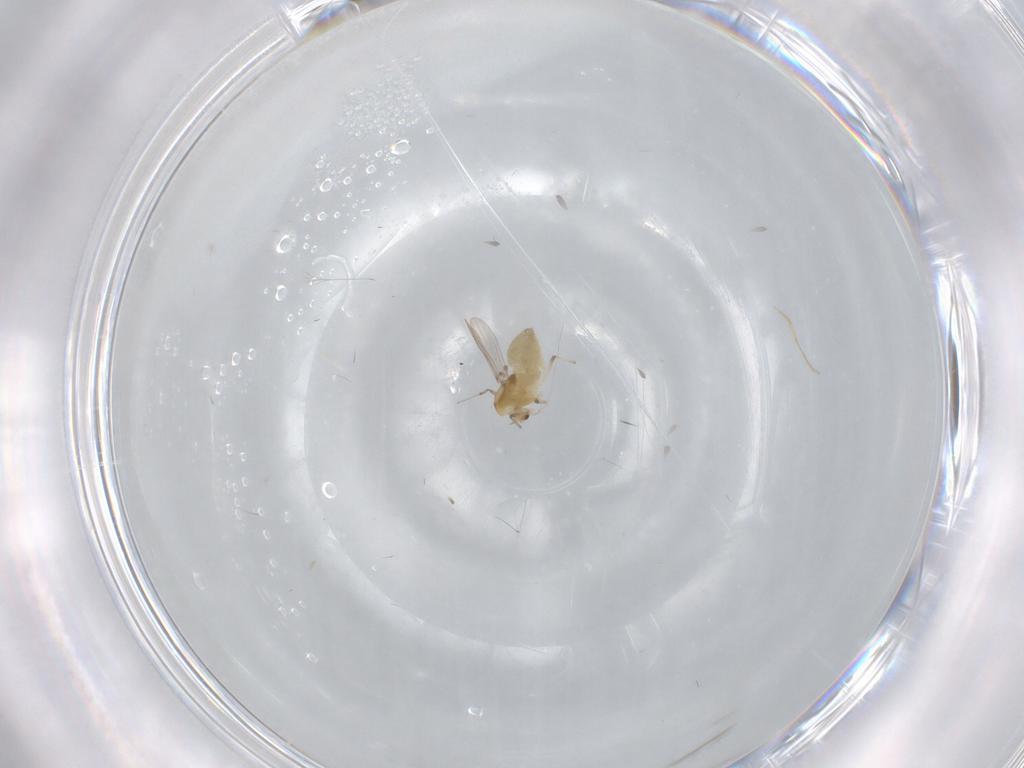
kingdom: Animalia
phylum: Arthropoda
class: Insecta
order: Diptera
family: Chironomidae
